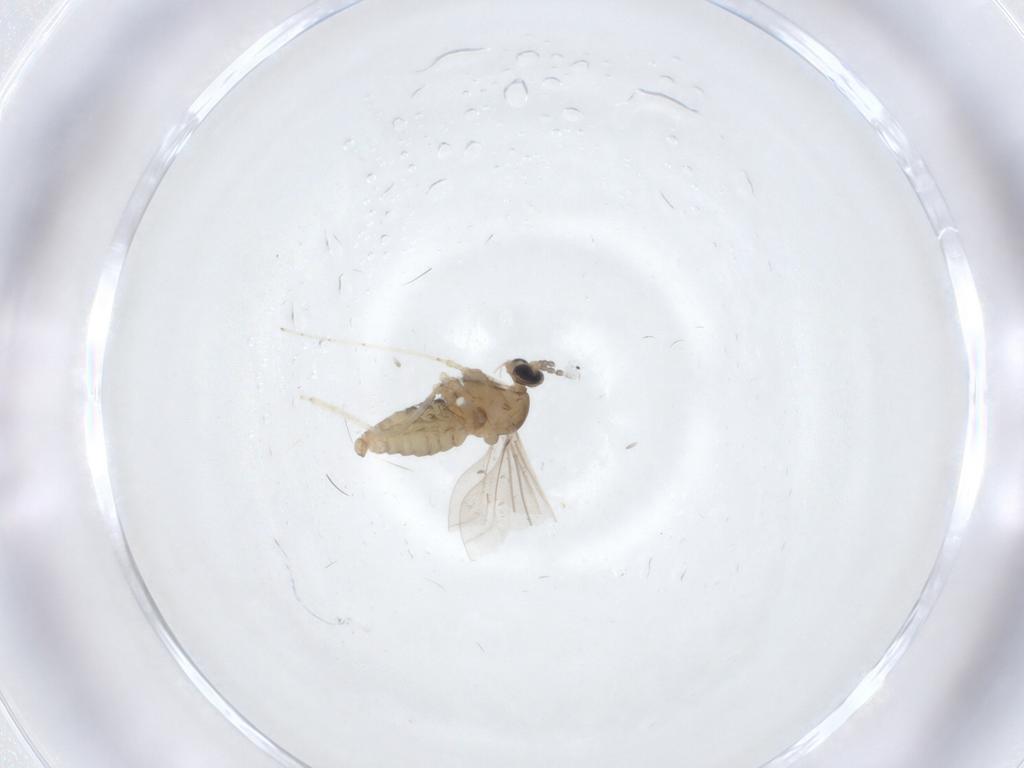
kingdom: Animalia
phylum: Arthropoda
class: Insecta
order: Diptera
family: Cecidomyiidae
